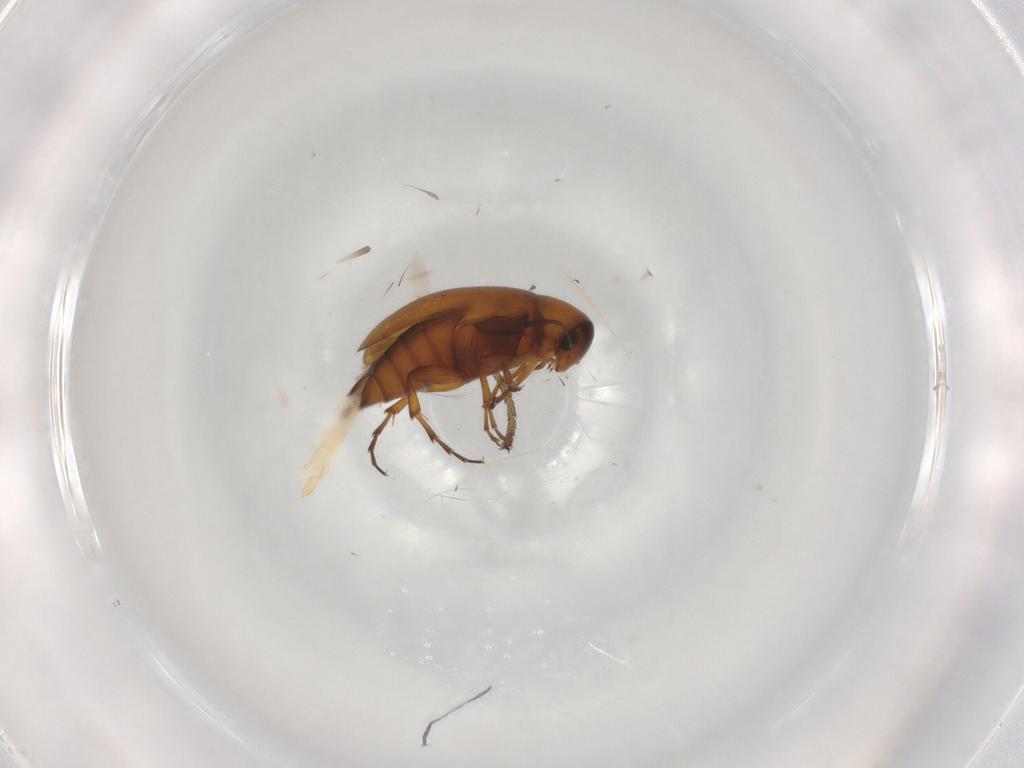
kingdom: Animalia
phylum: Arthropoda
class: Insecta
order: Coleoptera
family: Scraptiidae
